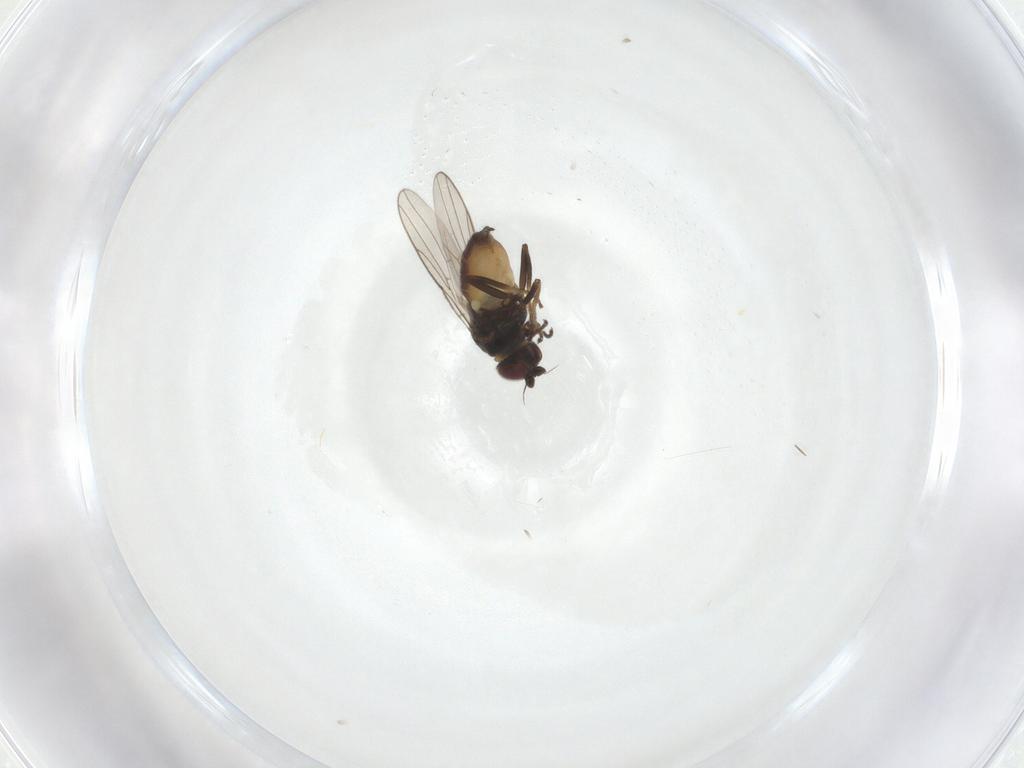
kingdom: Animalia
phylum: Arthropoda
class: Insecta
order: Diptera
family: Chloropidae
